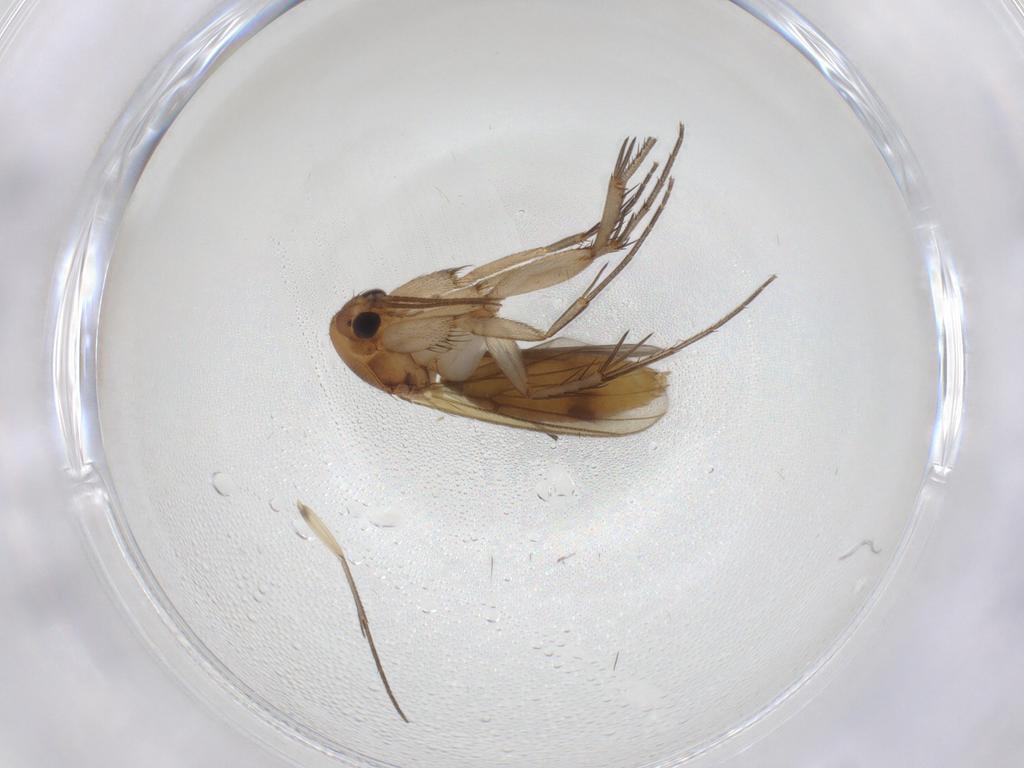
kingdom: Animalia
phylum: Arthropoda
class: Insecta
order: Diptera
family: Mycetophilidae
